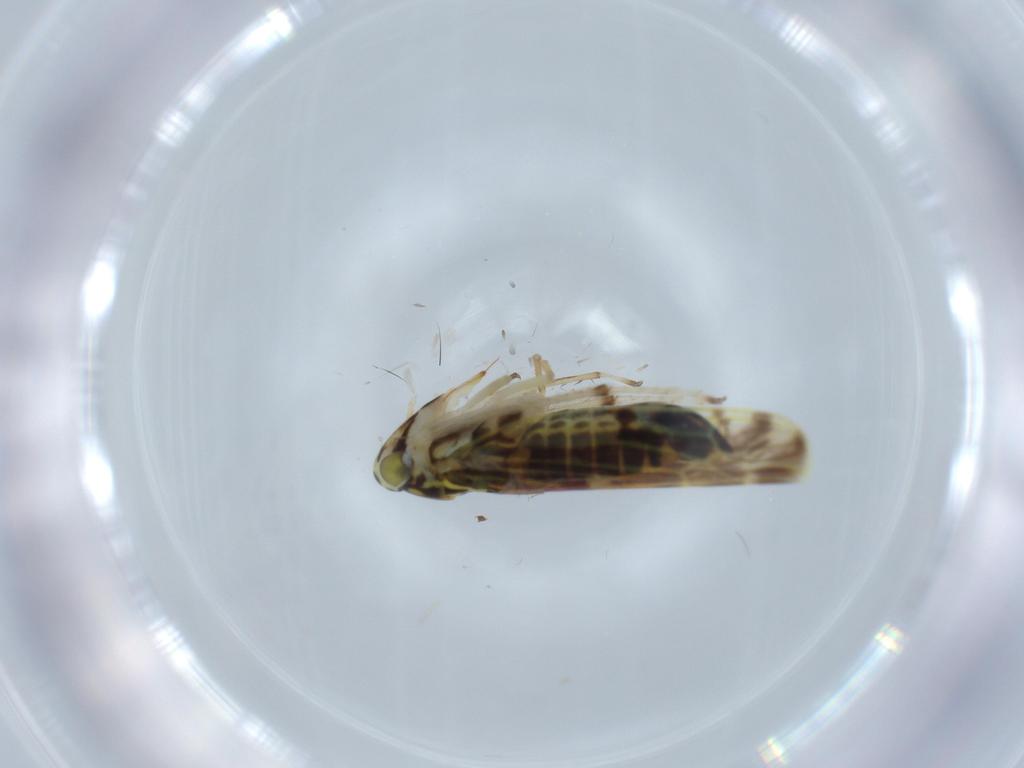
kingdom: Animalia
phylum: Arthropoda
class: Insecta
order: Hemiptera
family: Cicadellidae
